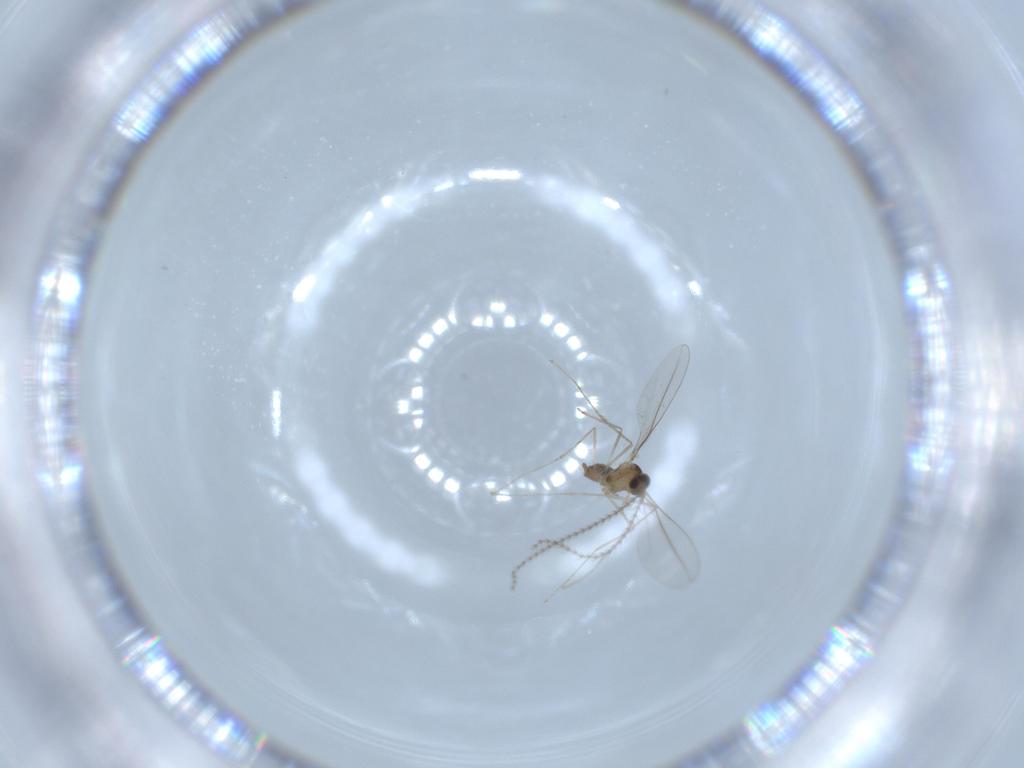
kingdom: Animalia
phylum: Arthropoda
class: Insecta
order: Diptera
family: Ceratopogonidae
